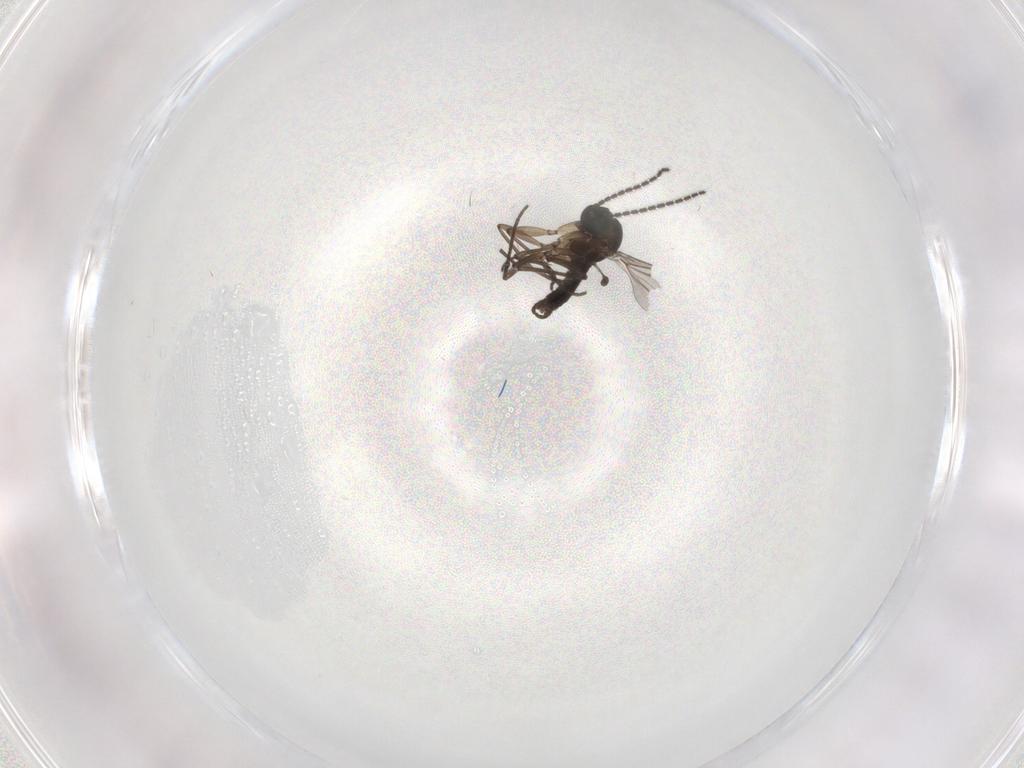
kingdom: Animalia
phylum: Arthropoda
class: Insecta
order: Diptera
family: Sciaridae
